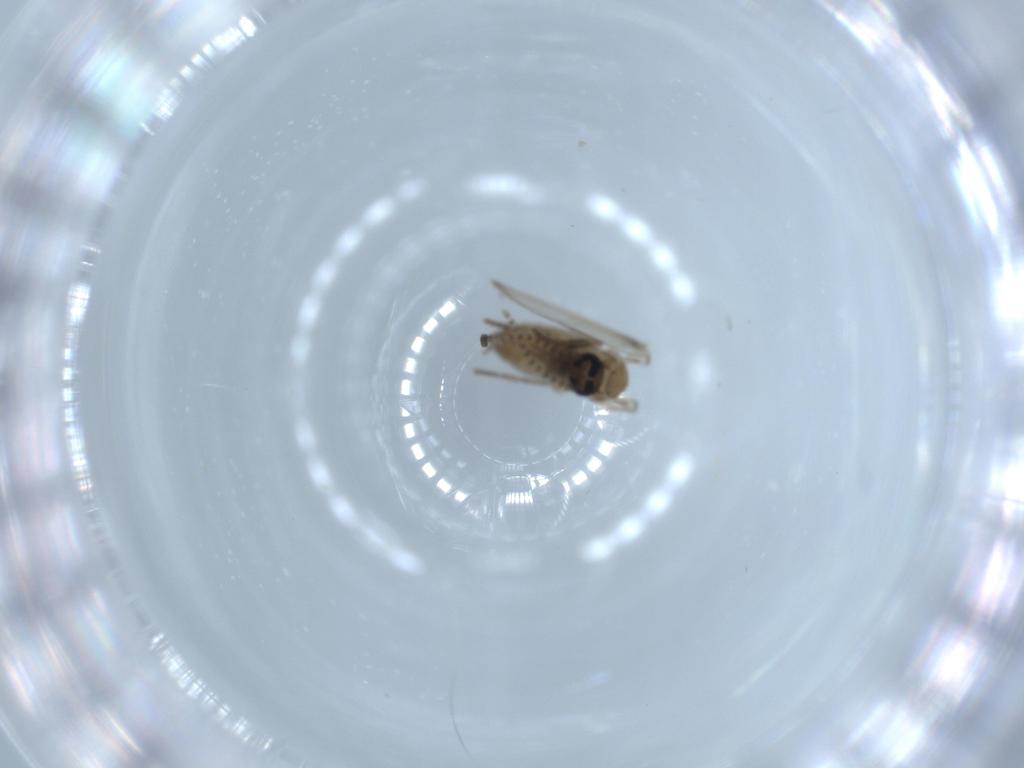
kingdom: Animalia
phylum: Arthropoda
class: Insecta
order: Diptera
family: Psychodidae
